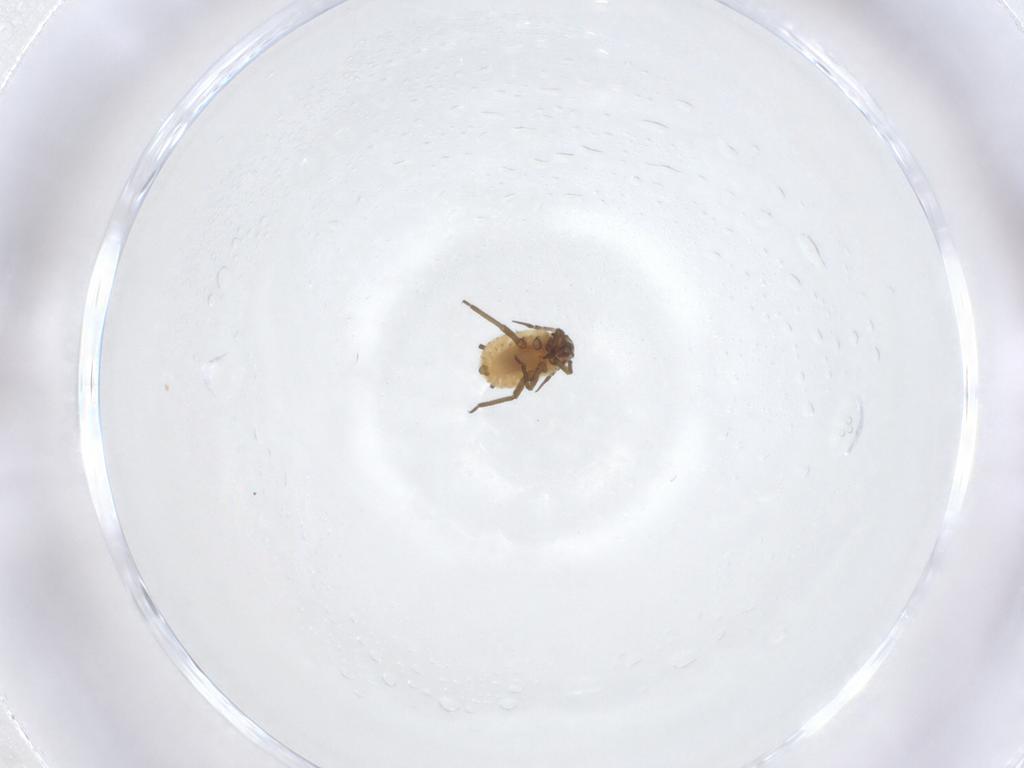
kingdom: Animalia
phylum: Arthropoda
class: Insecta
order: Hemiptera
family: Aphididae
